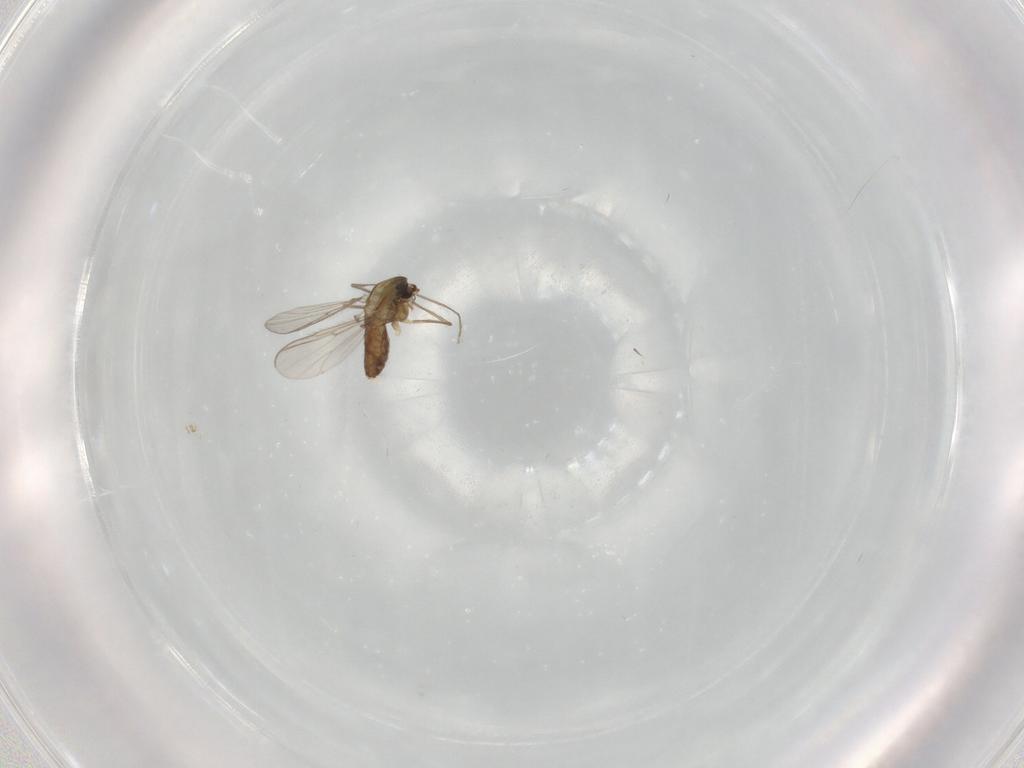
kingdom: Animalia
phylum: Arthropoda
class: Insecta
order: Diptera
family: Chironomidae
